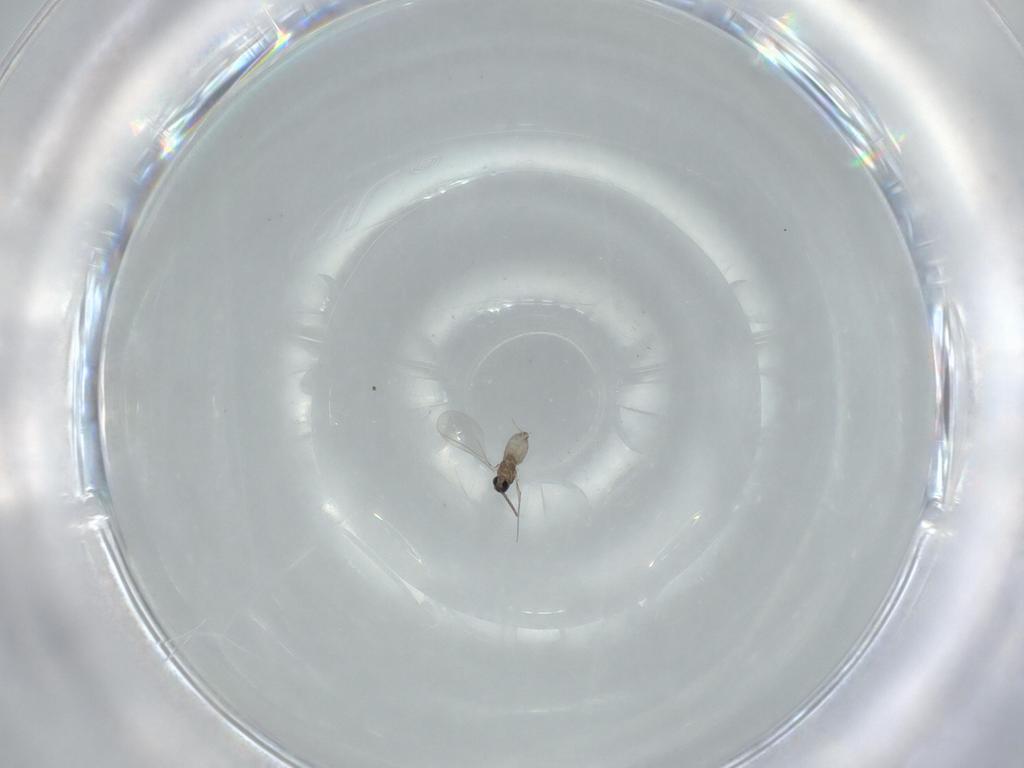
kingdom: Animalia
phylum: Arthropoda
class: Insecta
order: Diptera
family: Cecidomyiidae
